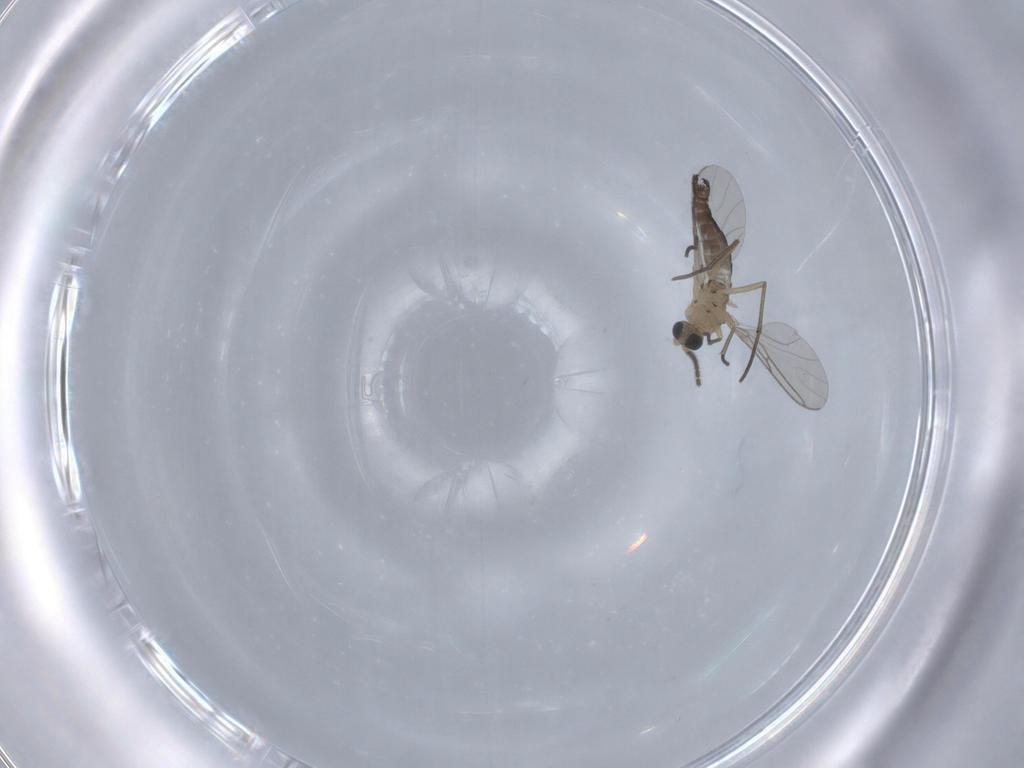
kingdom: Animalia
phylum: Arthropoda
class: Insecta
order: Diptera
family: Sciaridae
